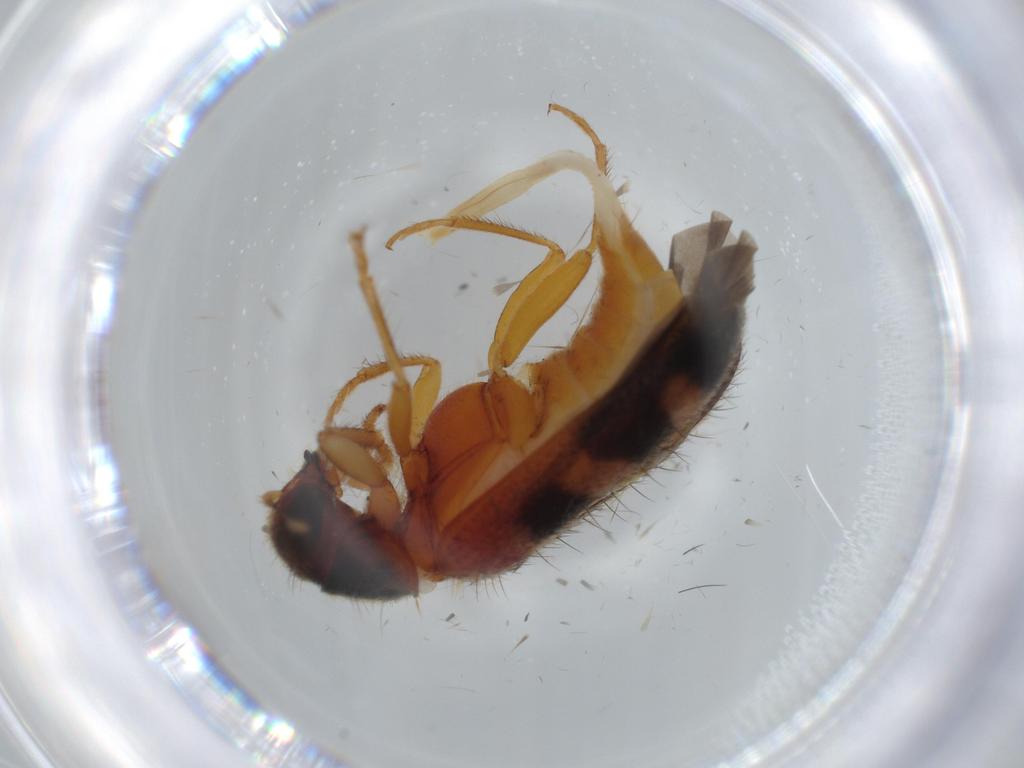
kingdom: Animalia
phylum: Arthropoda
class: Insecta
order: Coleoptera
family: Cleridae
